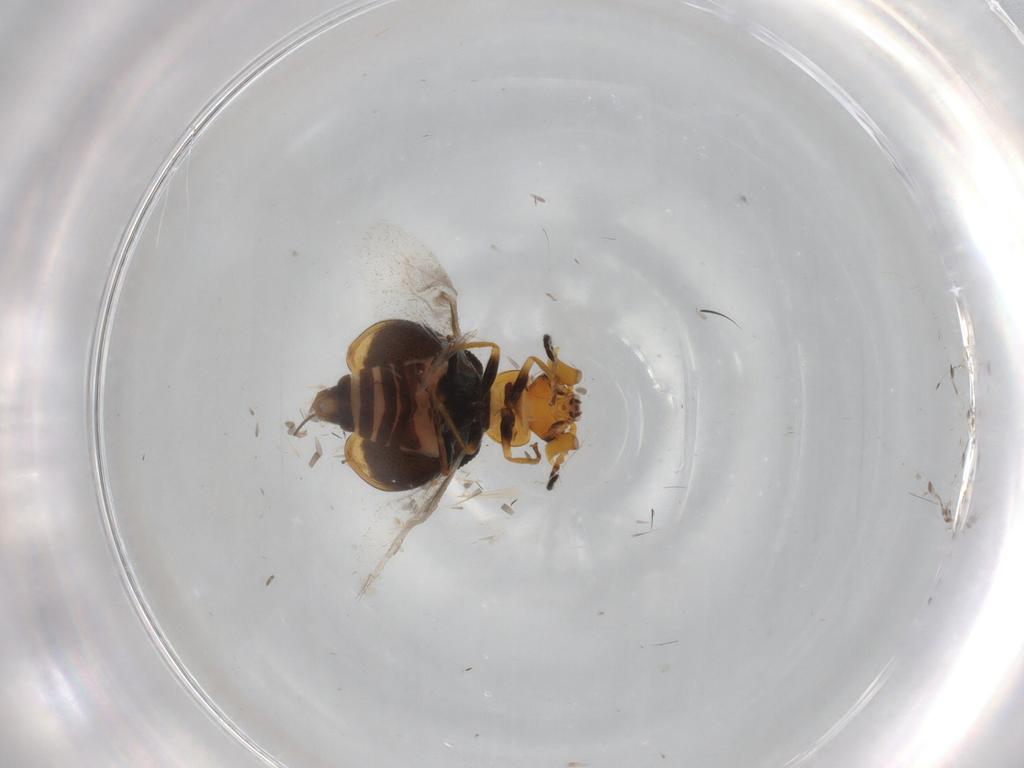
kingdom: Animalia
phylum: Arthropoda
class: Insecta
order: Coleoptera
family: Melyridae
